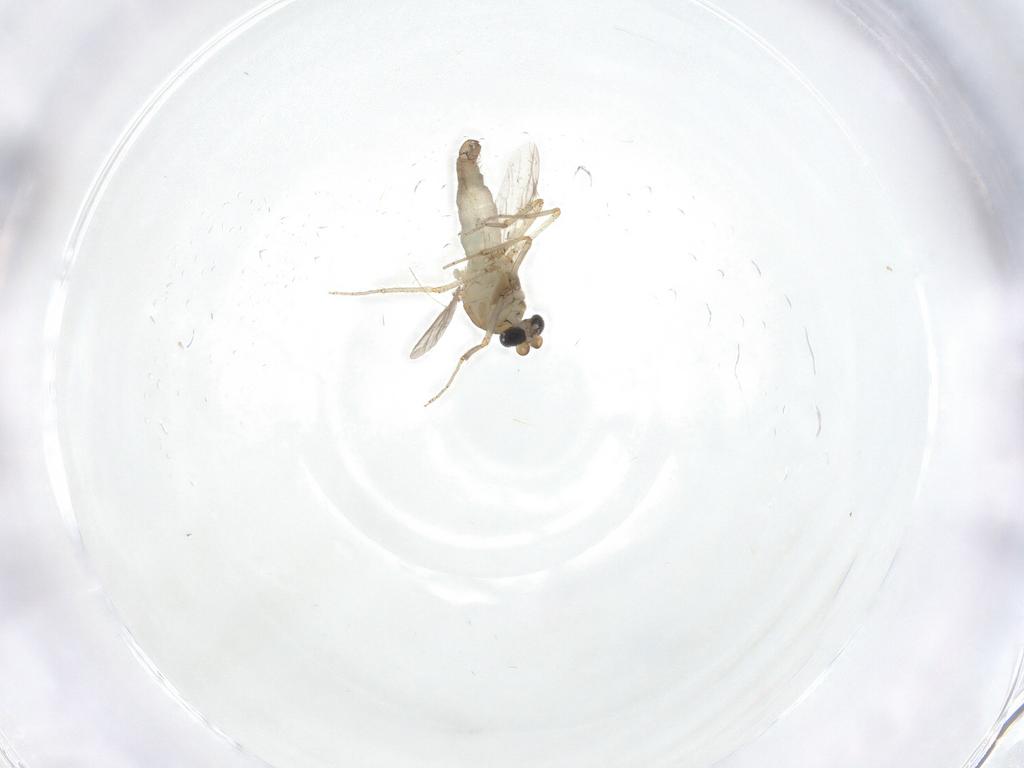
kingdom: Animalia
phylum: Arthropoda
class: Insecta
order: Diptera
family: Ceratopogonidae
